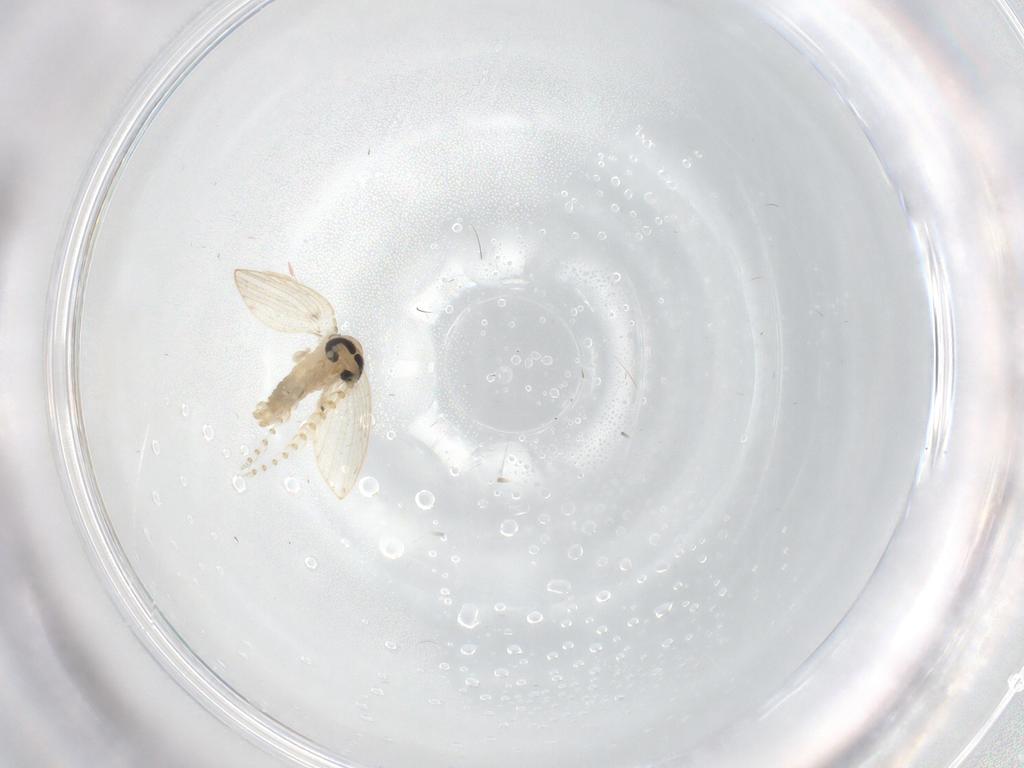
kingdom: Animalia
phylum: Arthropoda
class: Insecta
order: Diptera
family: Psychodidae
